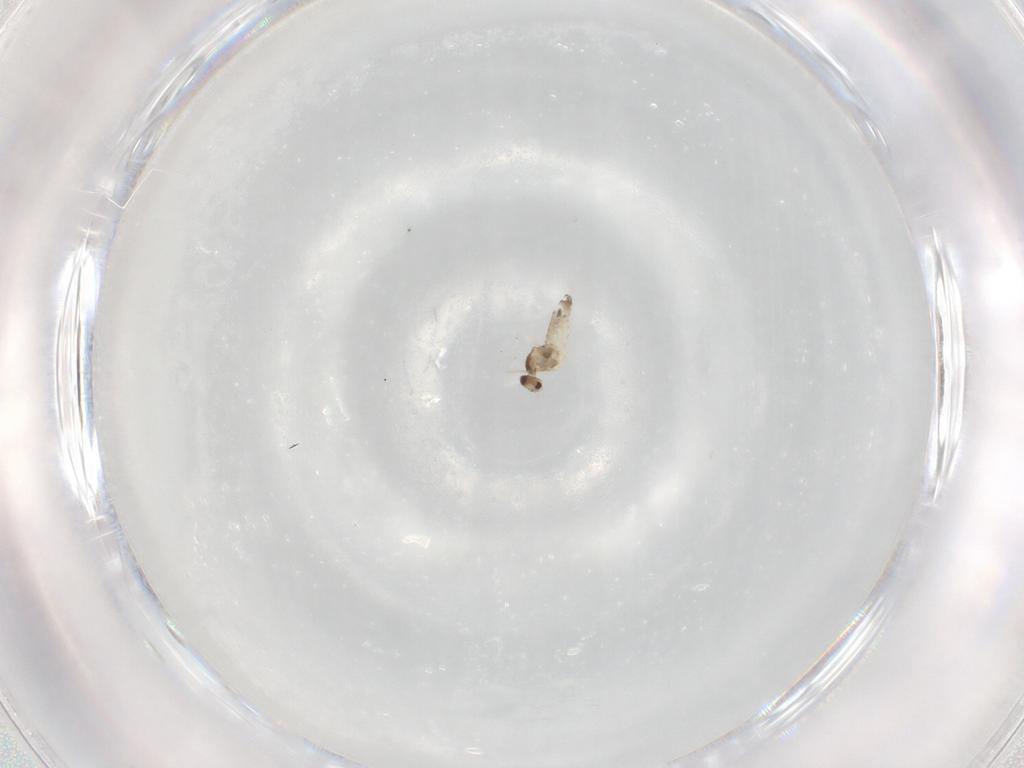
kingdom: Animalia
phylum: Arthropoda
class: Insecta
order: Diptera
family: Cecidomyiidae
